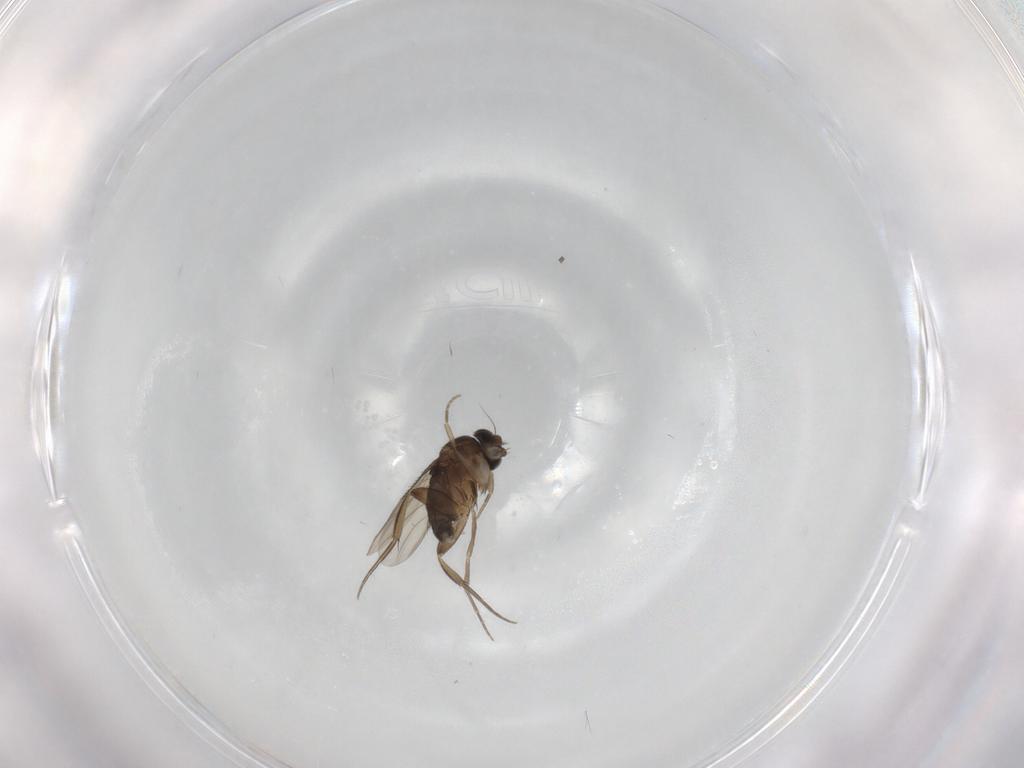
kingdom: Animalia
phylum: Arthropoda
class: Insecta
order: Diptera
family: Phoridae
